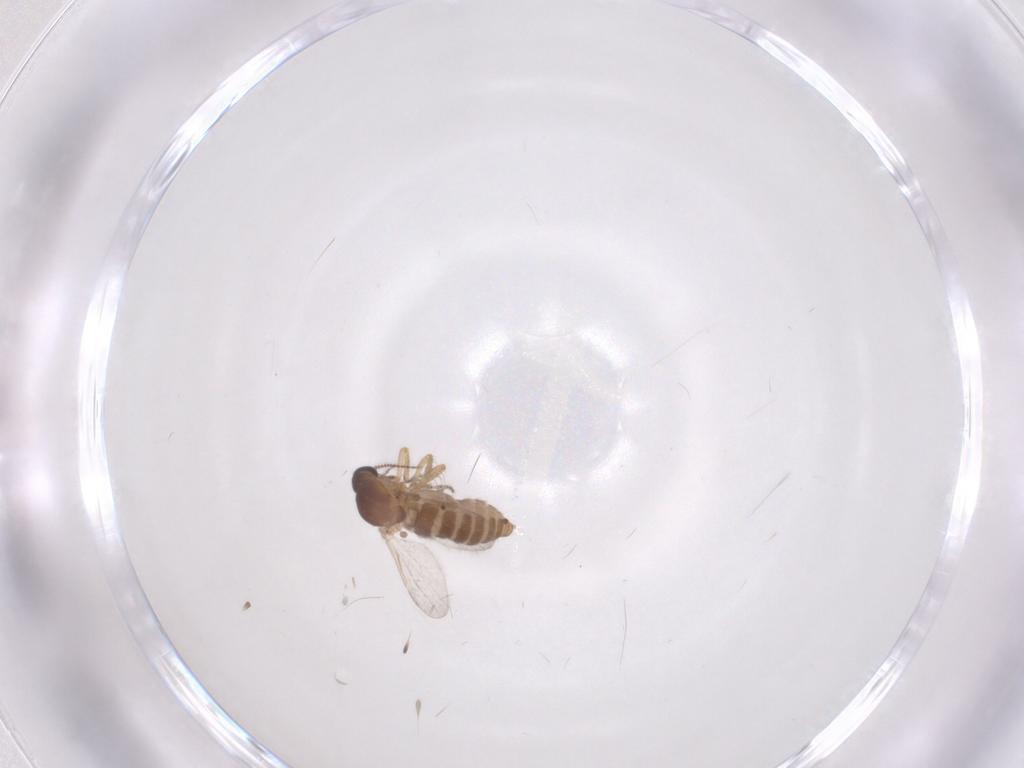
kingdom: Animalia
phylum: Arthropoda
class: Insecta
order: Diptera
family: Ceratopogonidae
